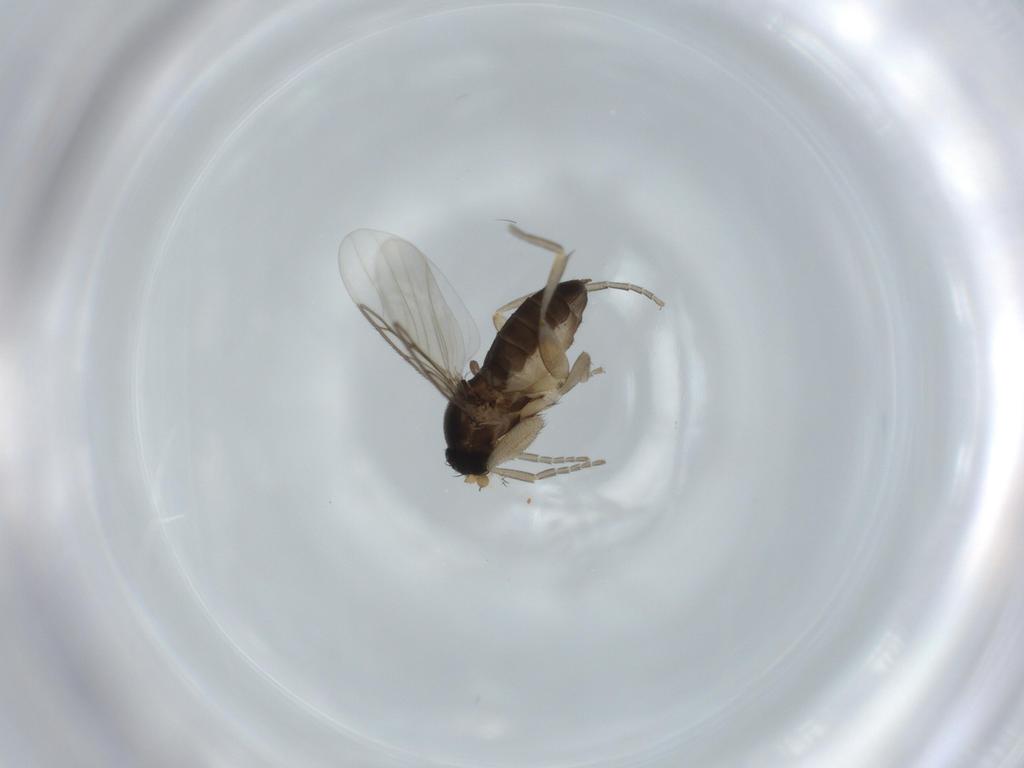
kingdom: Animalia
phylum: Arthropoda
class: Insecta
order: Diptera
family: Phoridae
